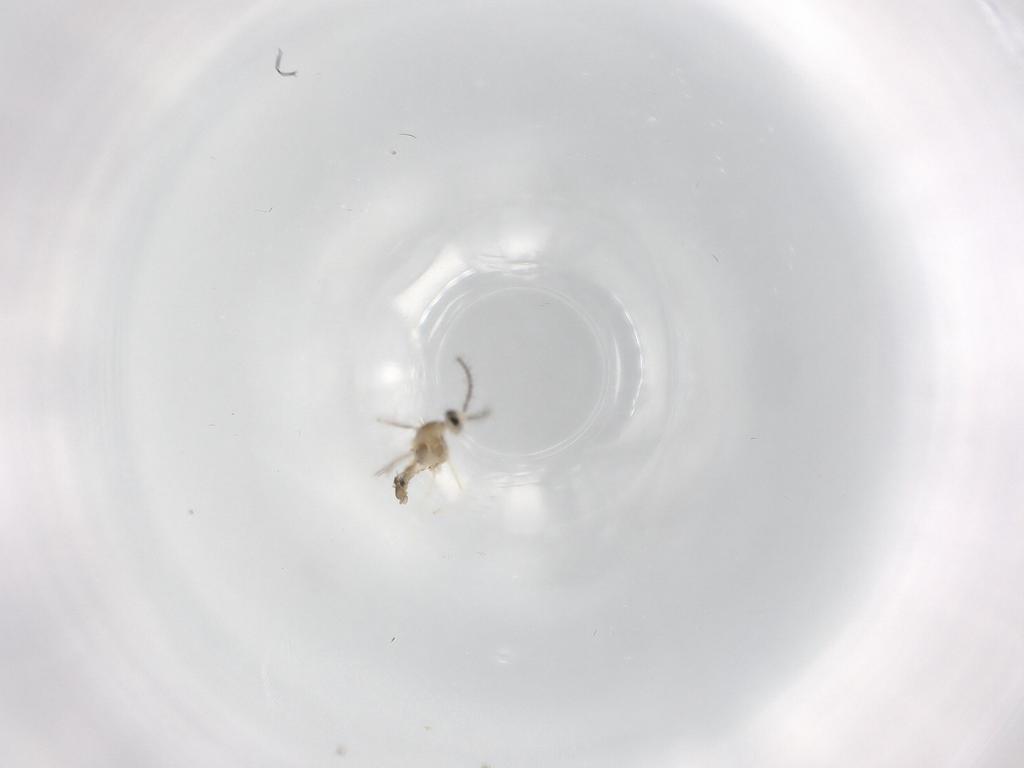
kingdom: Animalia
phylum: Arthropoda
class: Insecta
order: Diptera
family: Cecidomyiidae
